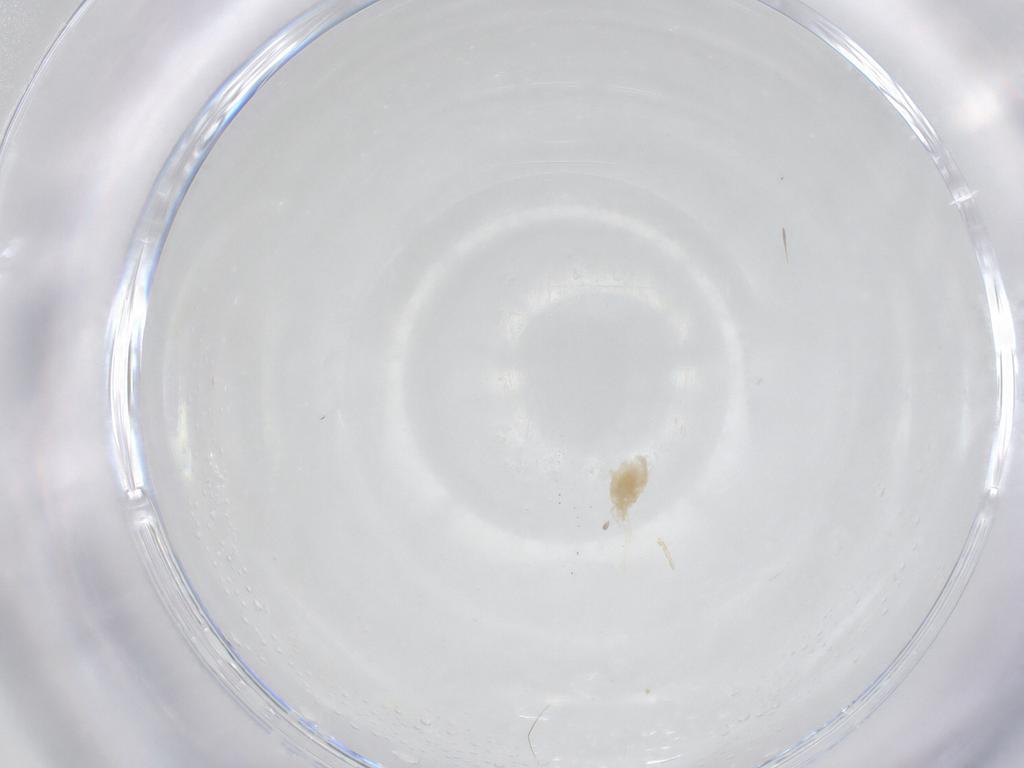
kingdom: Animalia
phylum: Arthropoda
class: Arachnida
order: Trombidiformes
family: Eupodidae
